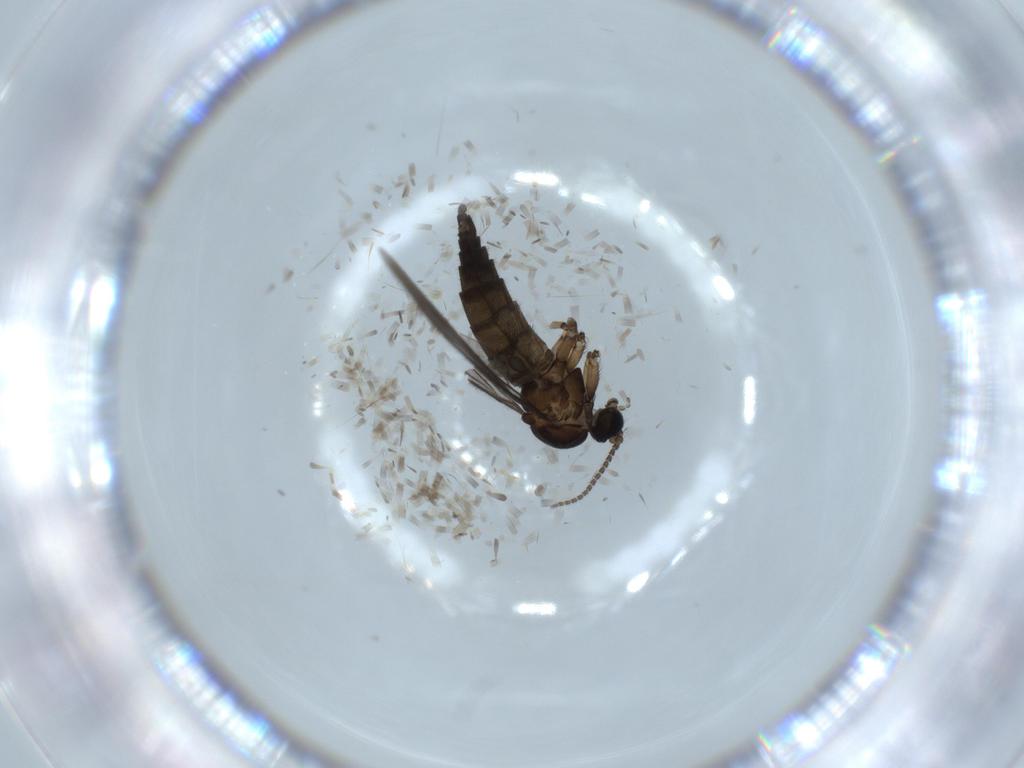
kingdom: Animalia
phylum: Arthropoda
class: Insecta
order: Diptera
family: Sciaridae
